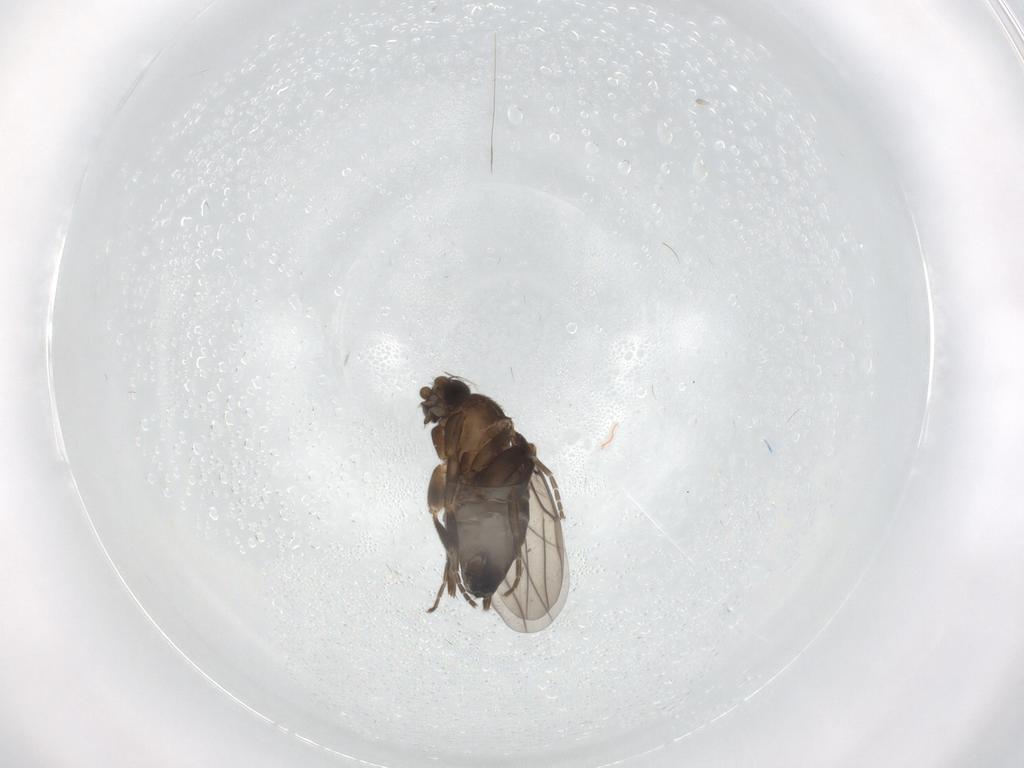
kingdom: Animalia
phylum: Arthropoda
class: Insecta
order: Diptera
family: Cecidomyiidae
